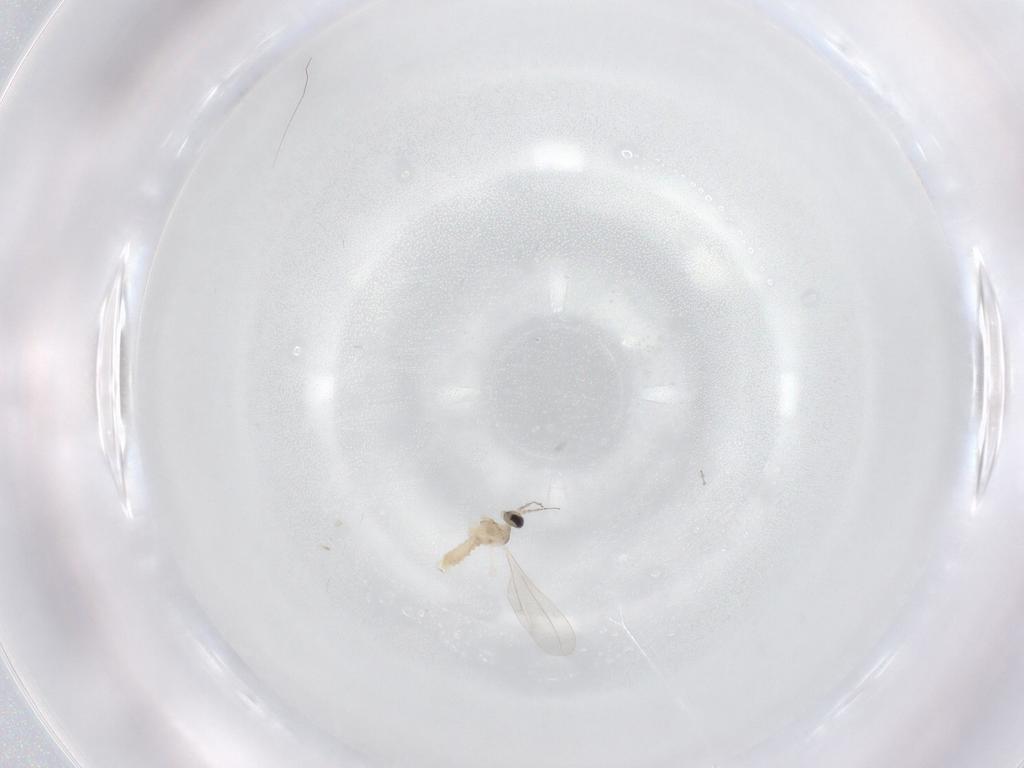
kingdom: Animalia
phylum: Arthropoda
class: Insecta
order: Diptera
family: Cecidomyiidae
